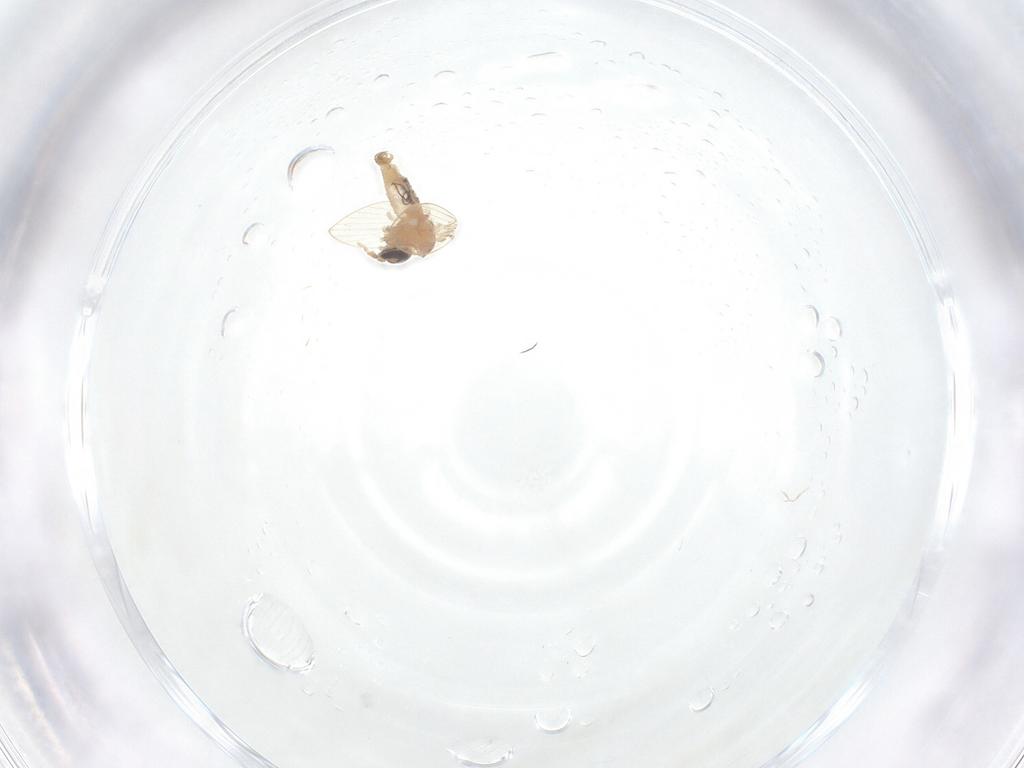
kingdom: Animalia
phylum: Arthropoda
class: Insecta
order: Diptera
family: Psychodidae
